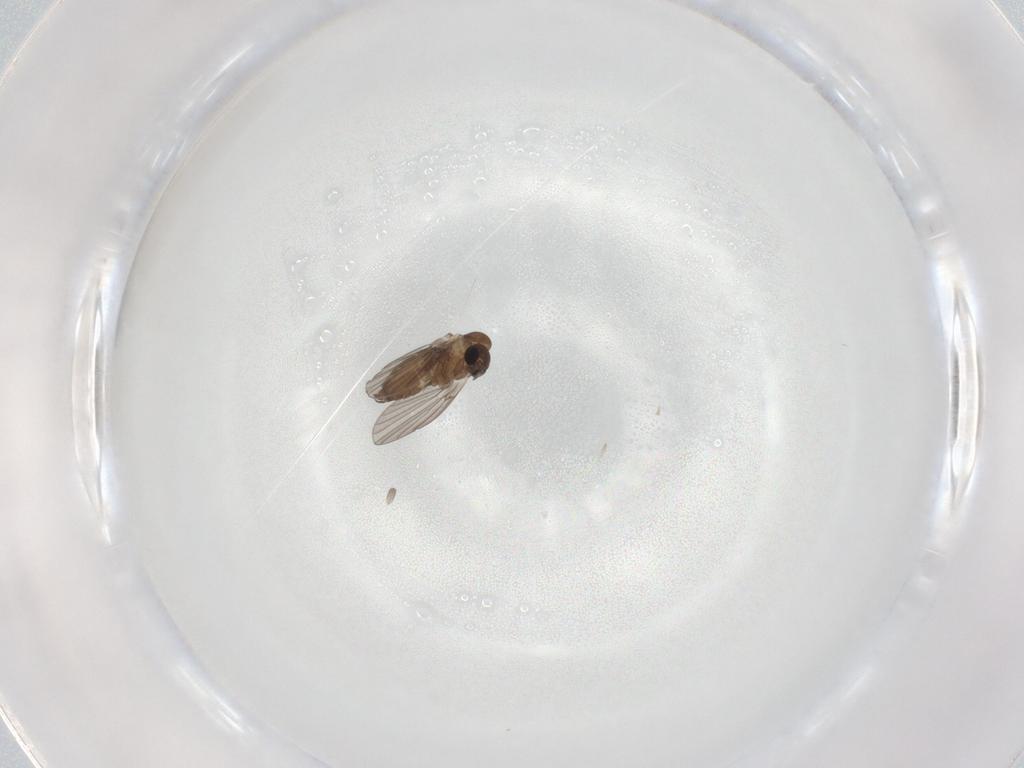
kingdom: Animalia
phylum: Arthropoda
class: Insecta
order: Diptera
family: Psychodidae
